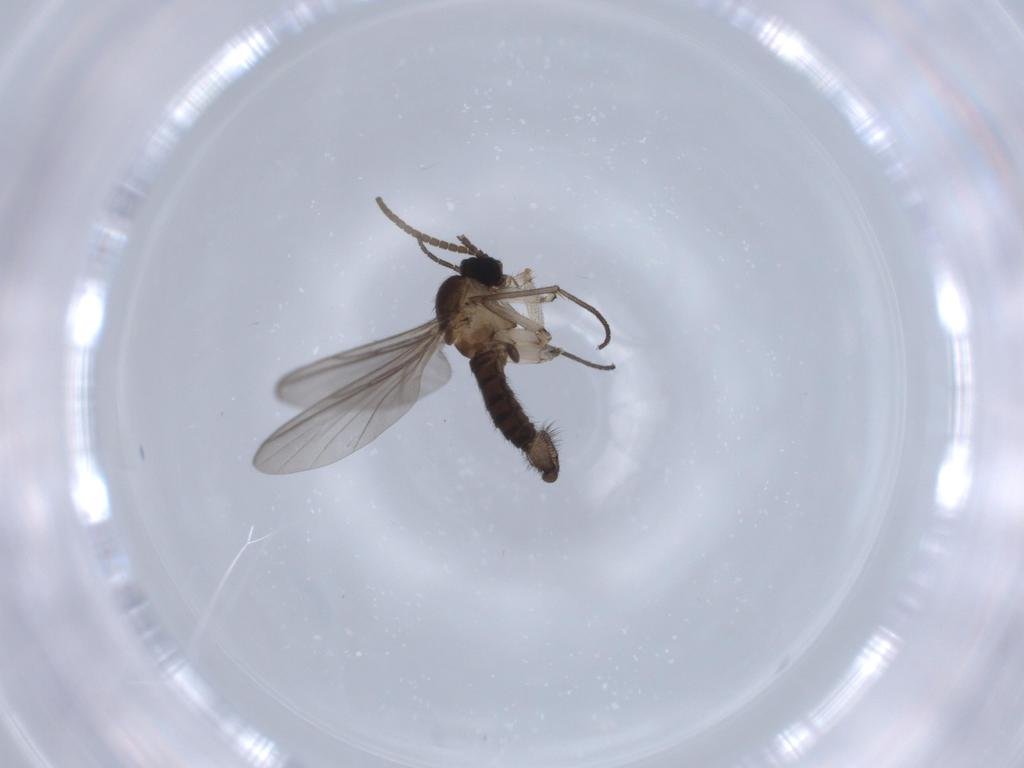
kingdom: Animalia
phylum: Arthropoda
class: Insecta
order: Diptera
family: Sciaridae
